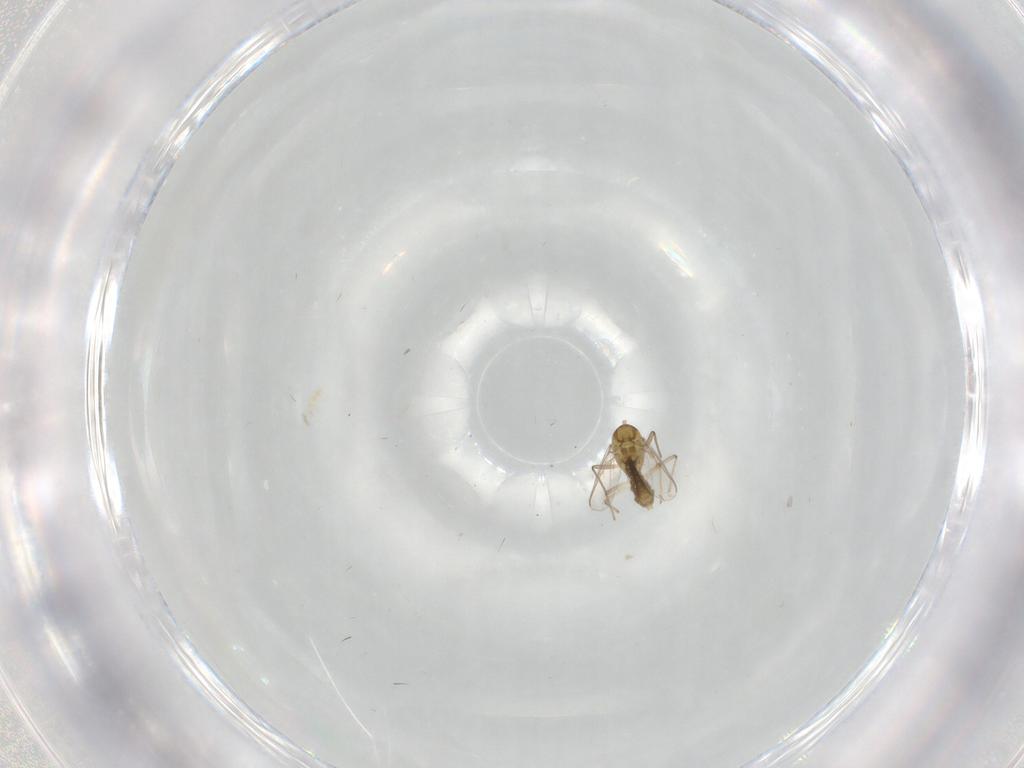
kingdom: Animalia
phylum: Arthropoda
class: Insecta
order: Diptera
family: Chironomidae
